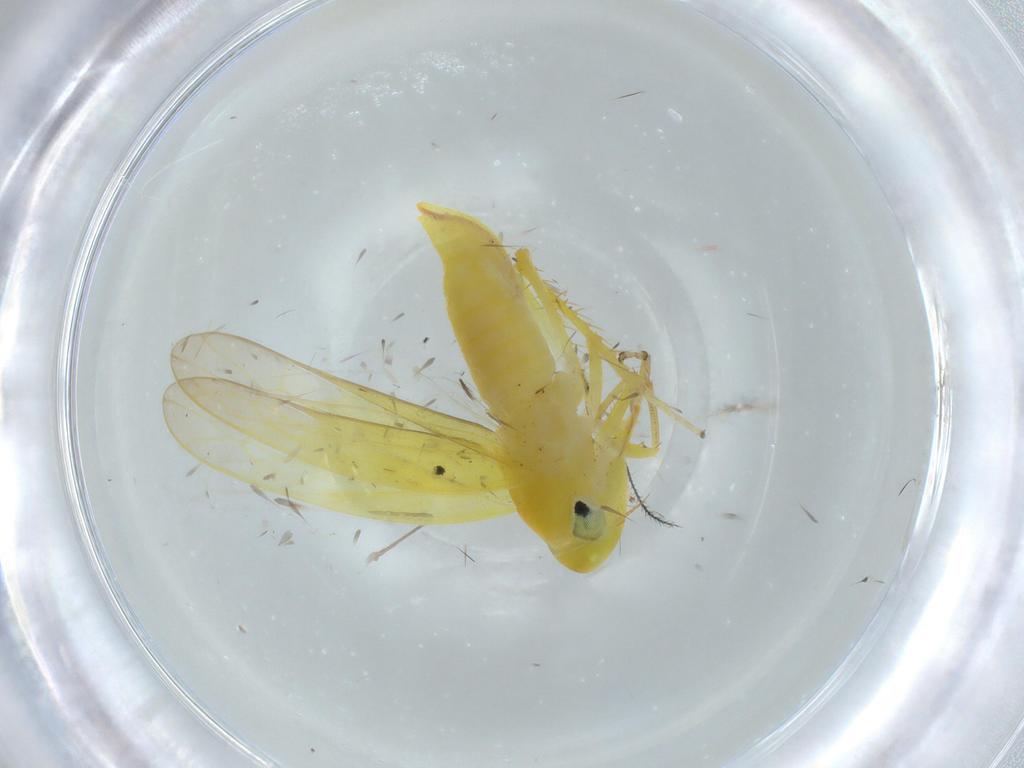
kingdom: Animalia
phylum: Arthropoda
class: Insecta
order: Hemiptera
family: Cicadellidae
